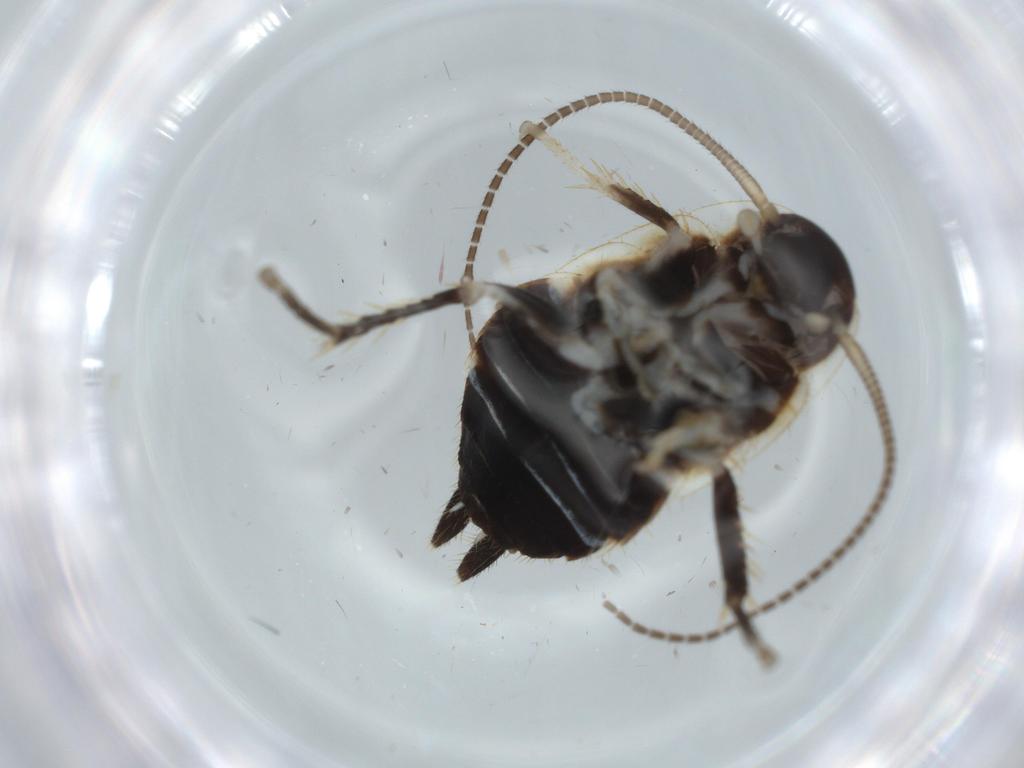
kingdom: Animalia
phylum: Arthropoda
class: Insecta
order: Blattodea
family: Ectobiidae
